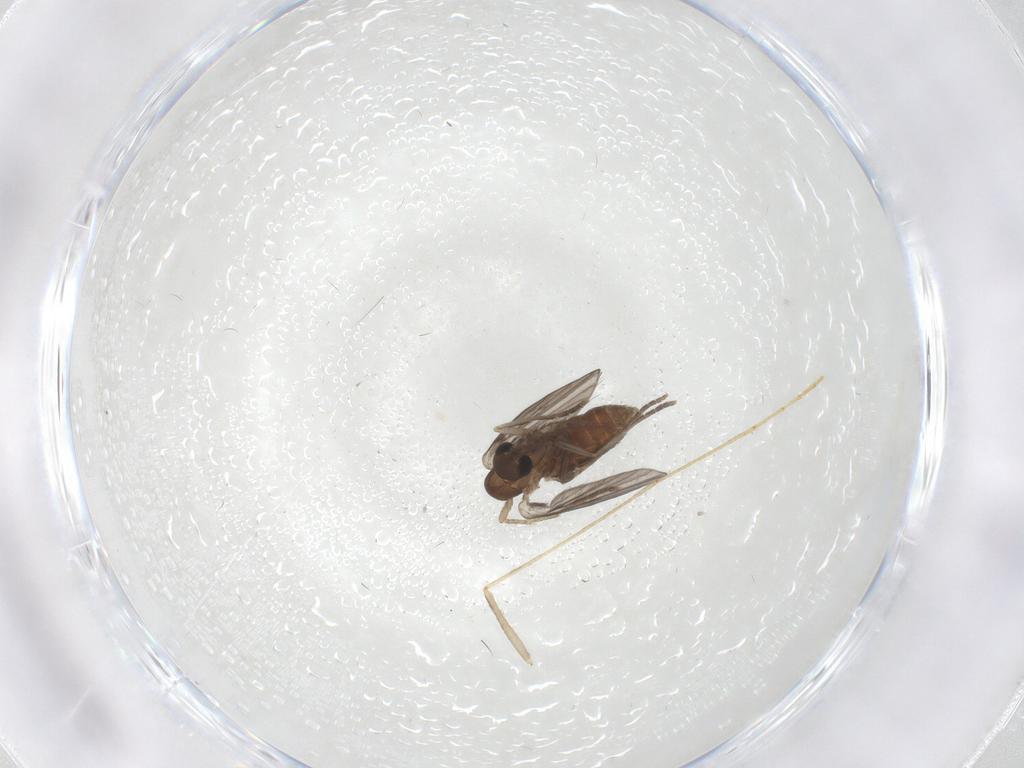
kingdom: Animalia
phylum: Arthropoda
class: Insecta
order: Diptera
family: Psychodidae
